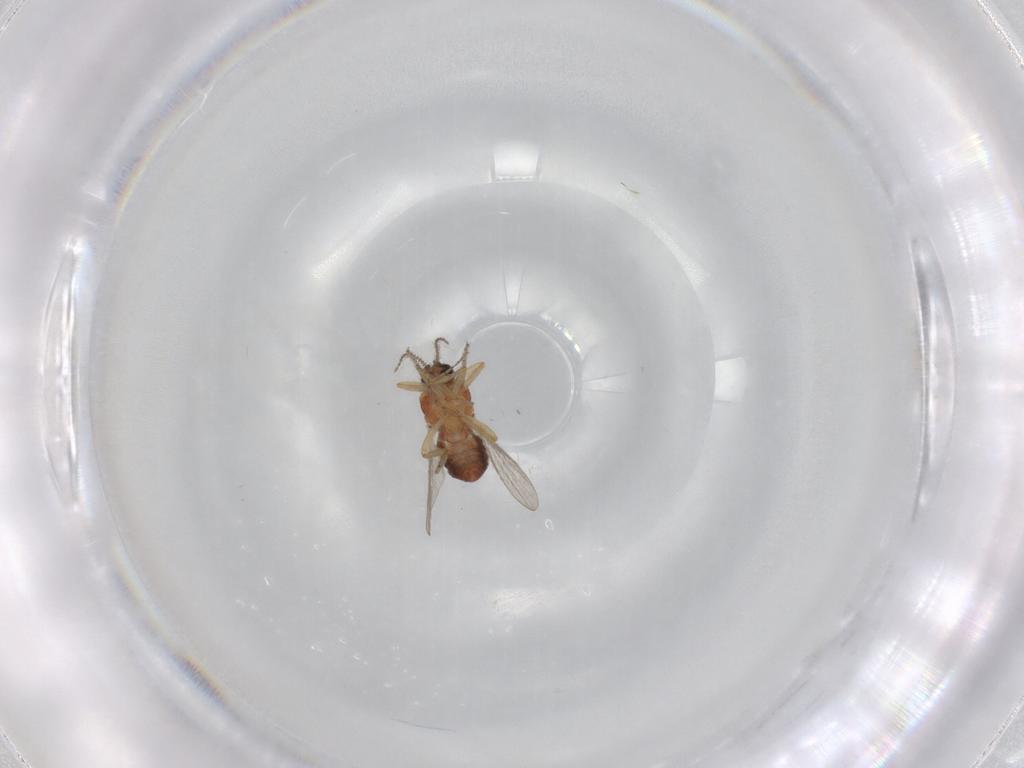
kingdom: Animalia
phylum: Arthropoda
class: Insecta
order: Diptera
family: Ceratopogonidae
